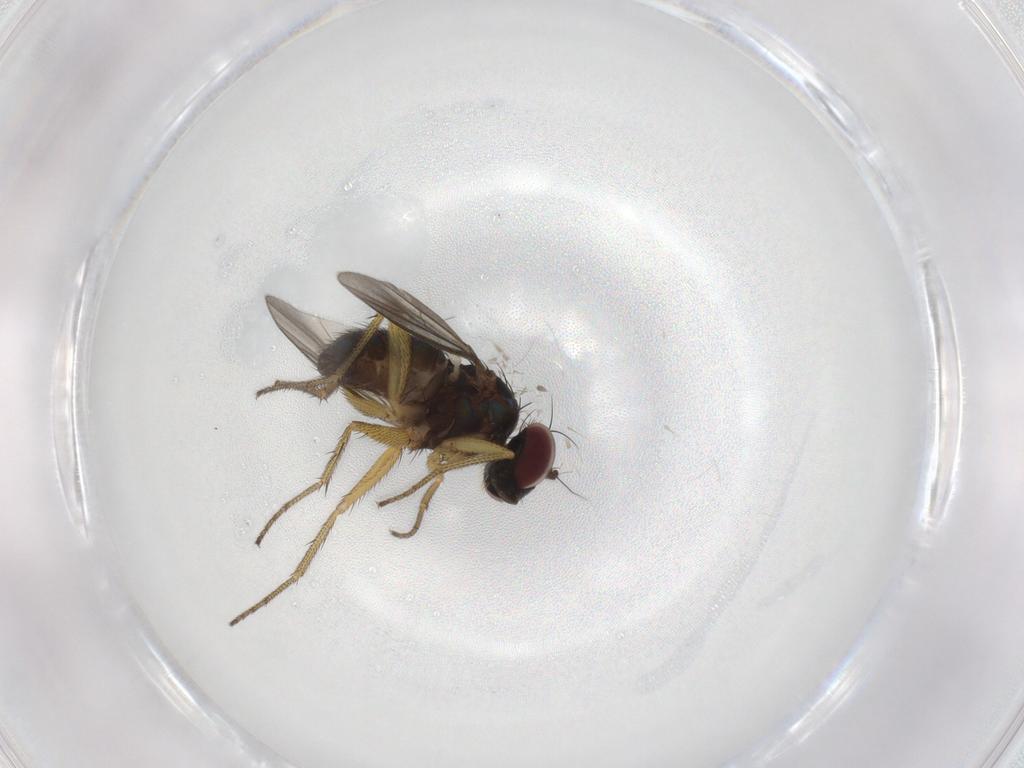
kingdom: Animalia
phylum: Arthropoda
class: Insecta
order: Diptera
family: Dolichopodidae
